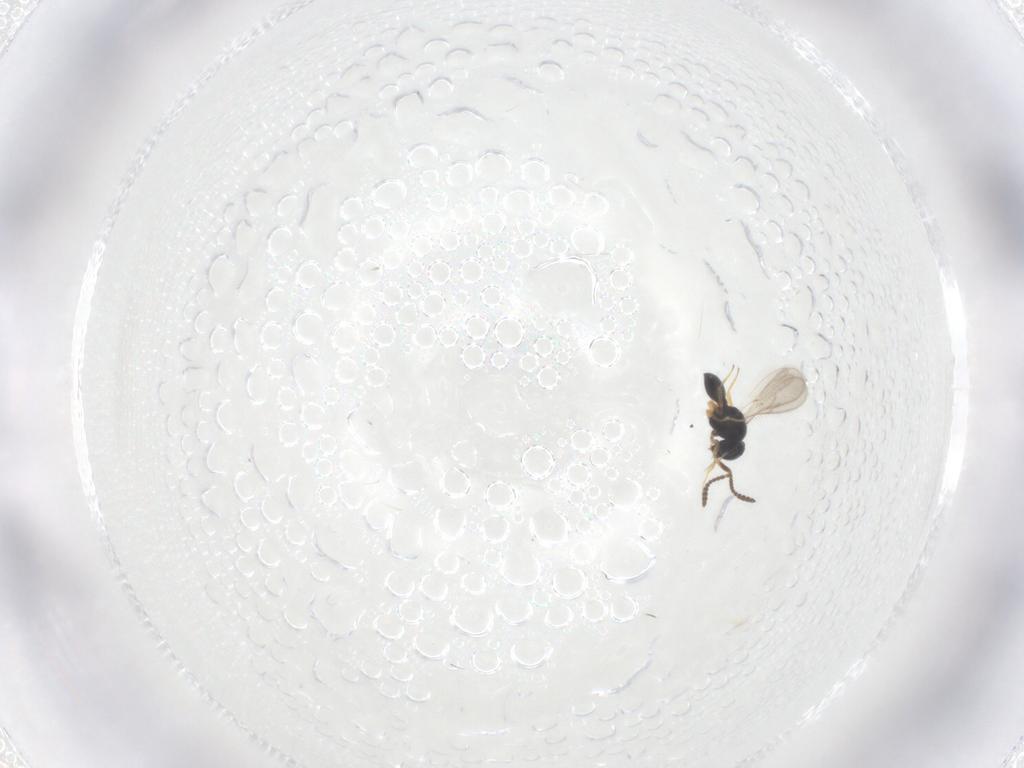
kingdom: Animalia
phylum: Arthropoda
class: Insecta
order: Hymenoptera
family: Scelionidae
